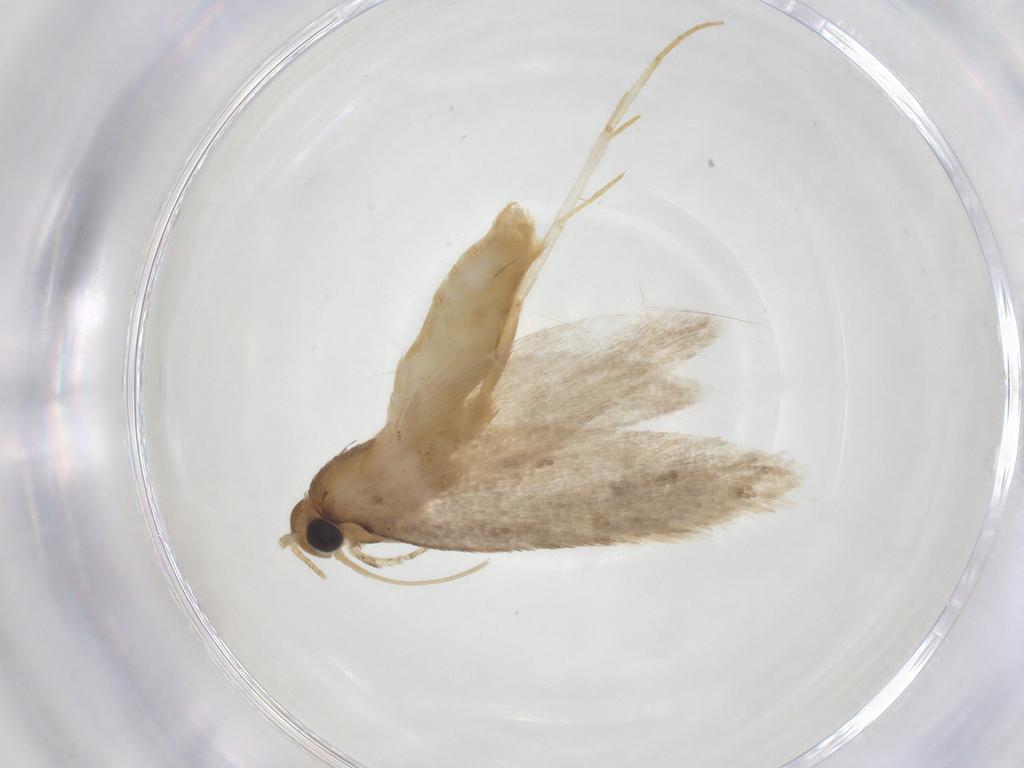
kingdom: Animalia
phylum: Arthropoda
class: Insecta
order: Lepidoptera
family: Oecophoridae
